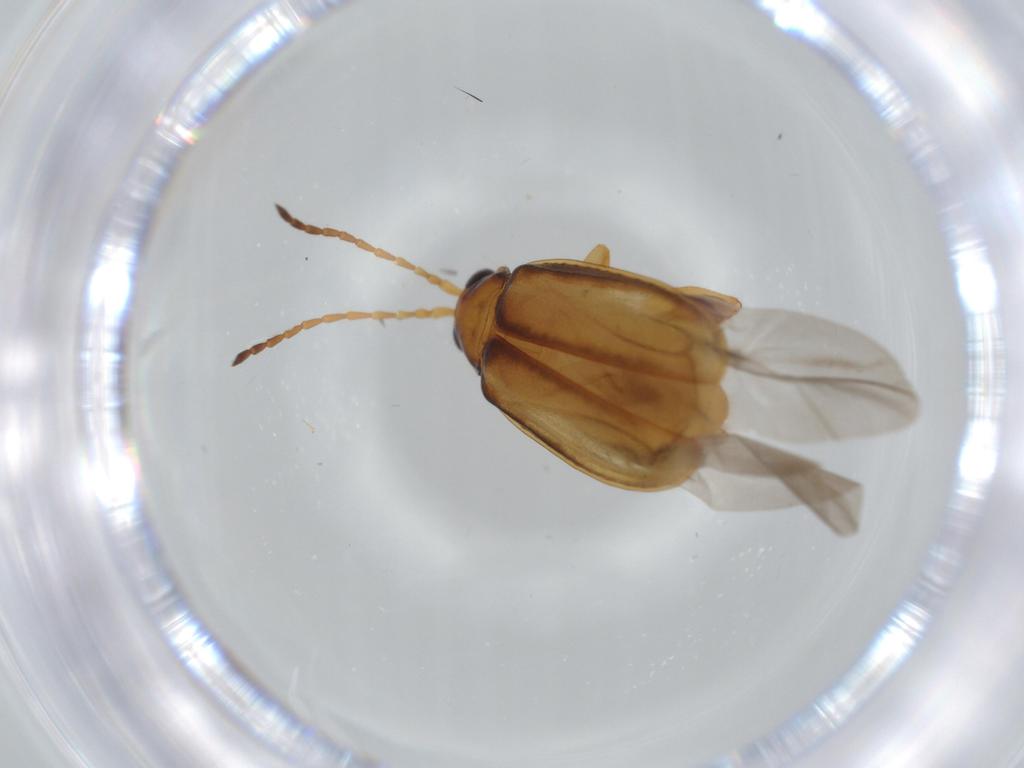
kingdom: Animalia
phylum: Arthropoda
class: Insecta
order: Coleoptera
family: Chrysomelidae
